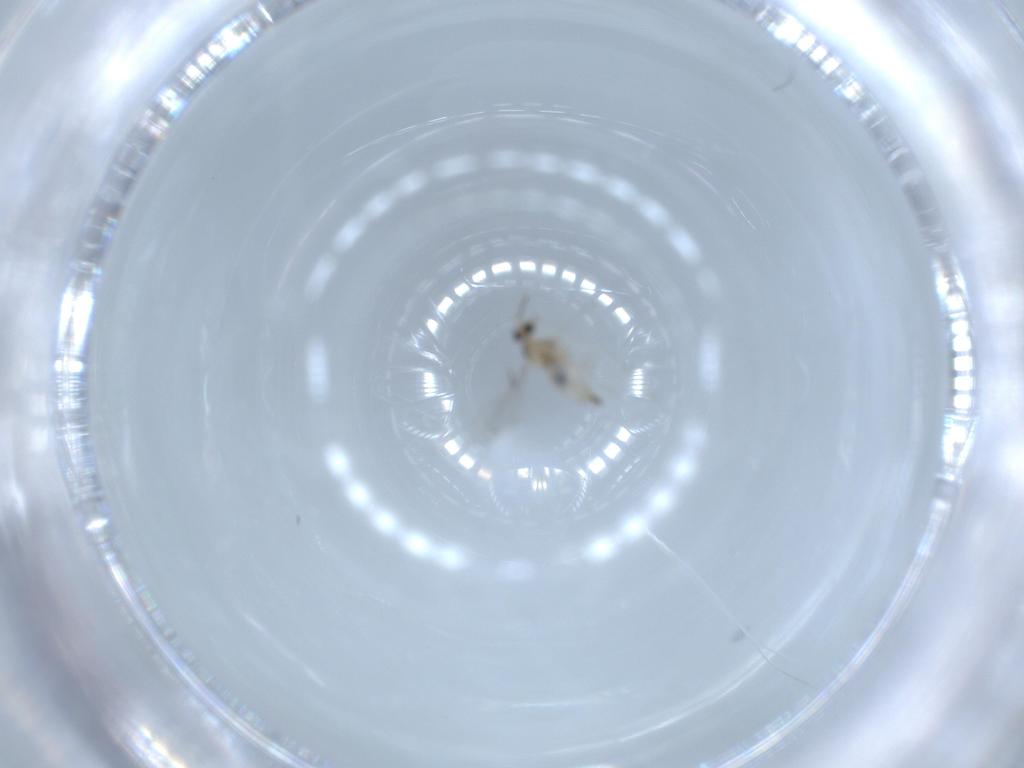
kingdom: Animalia
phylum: Arthropoda
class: Insecta
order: Diptera
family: Cecidomyiidae
